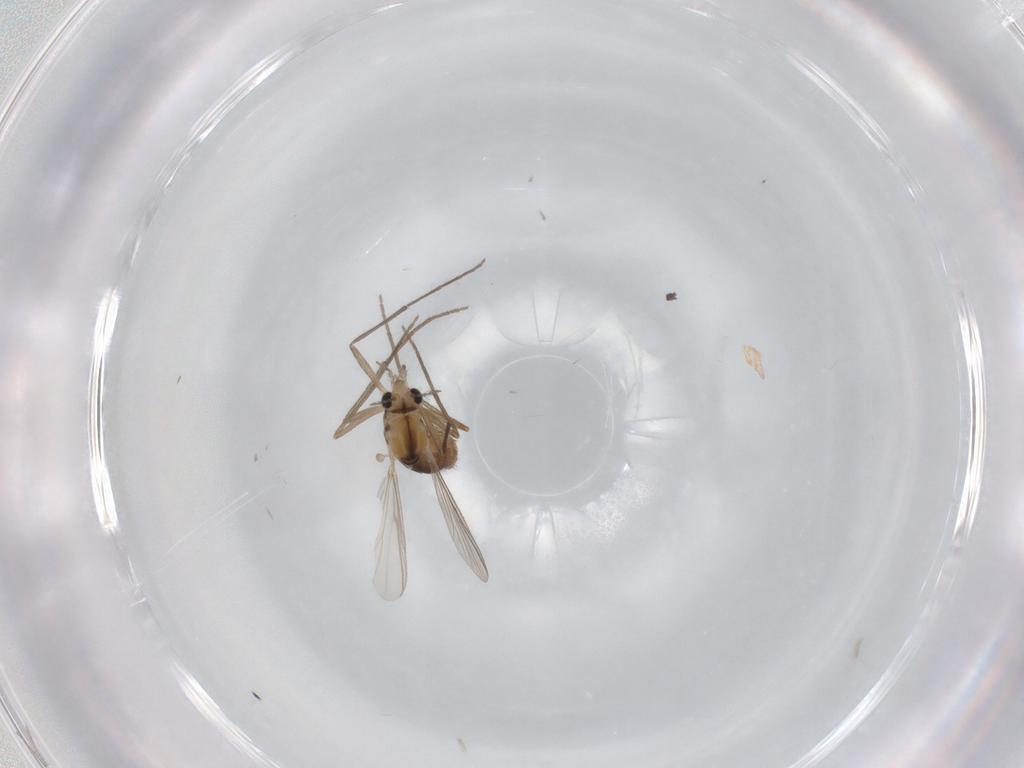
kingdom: Animalia
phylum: Arthropoda
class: Insecta
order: Diptera
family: Chironomidae
